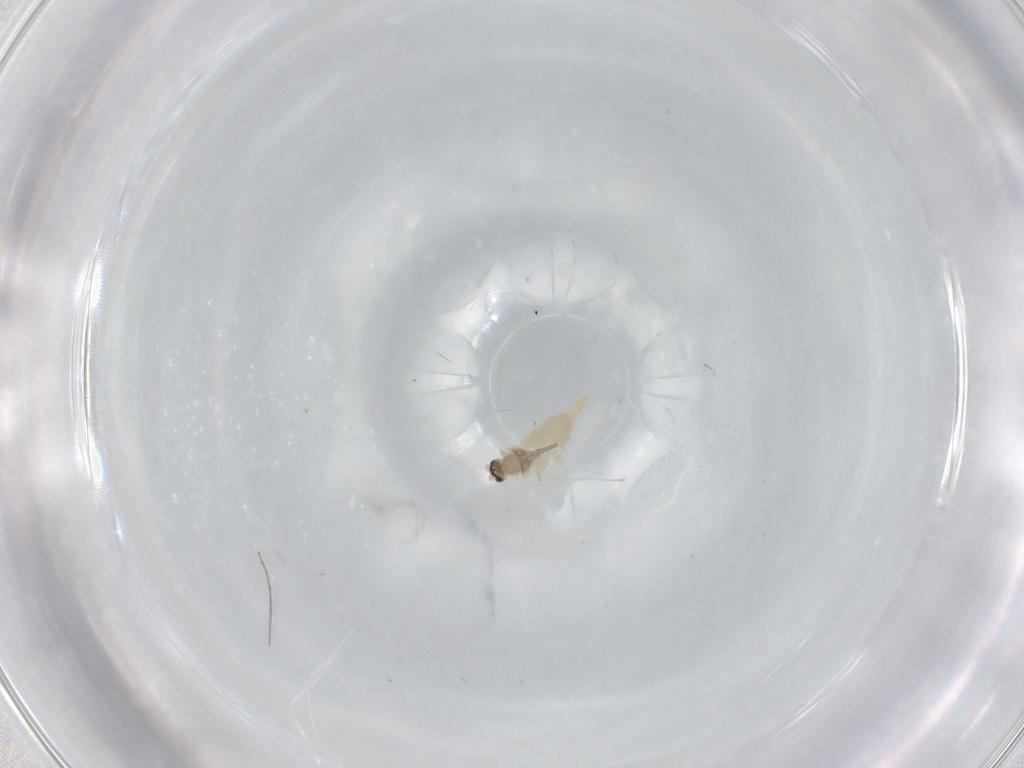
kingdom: Animalia
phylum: Arthropoda
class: Insecta
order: Diptera
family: Cecidomyiidae
